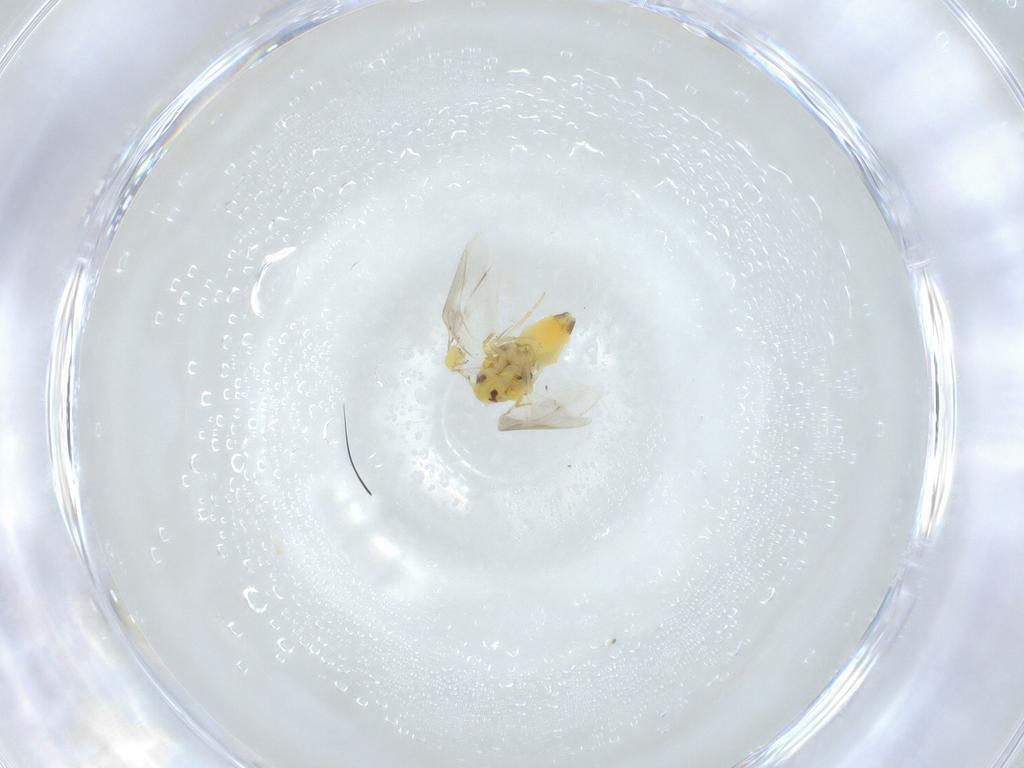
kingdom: Animalia
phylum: Arthropoda
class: Insecta
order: Hemiptera
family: Aleyrodidae
